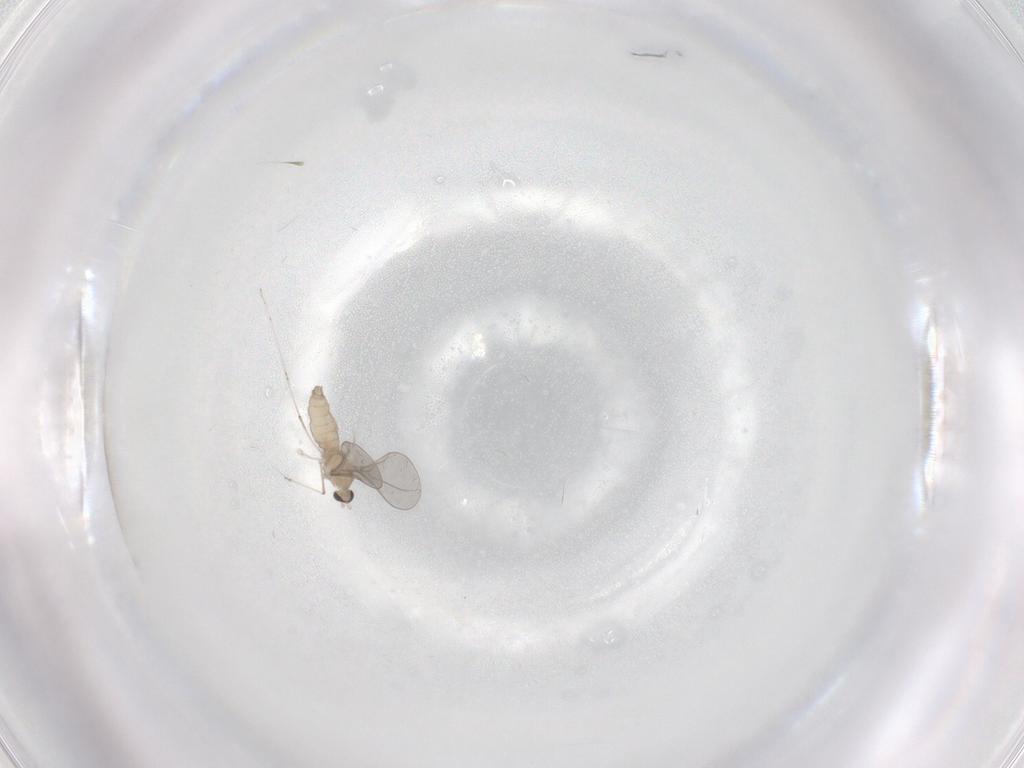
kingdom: Animalia
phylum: Arthropoda
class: Insecta
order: Diptera
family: Cecidomyiidae
